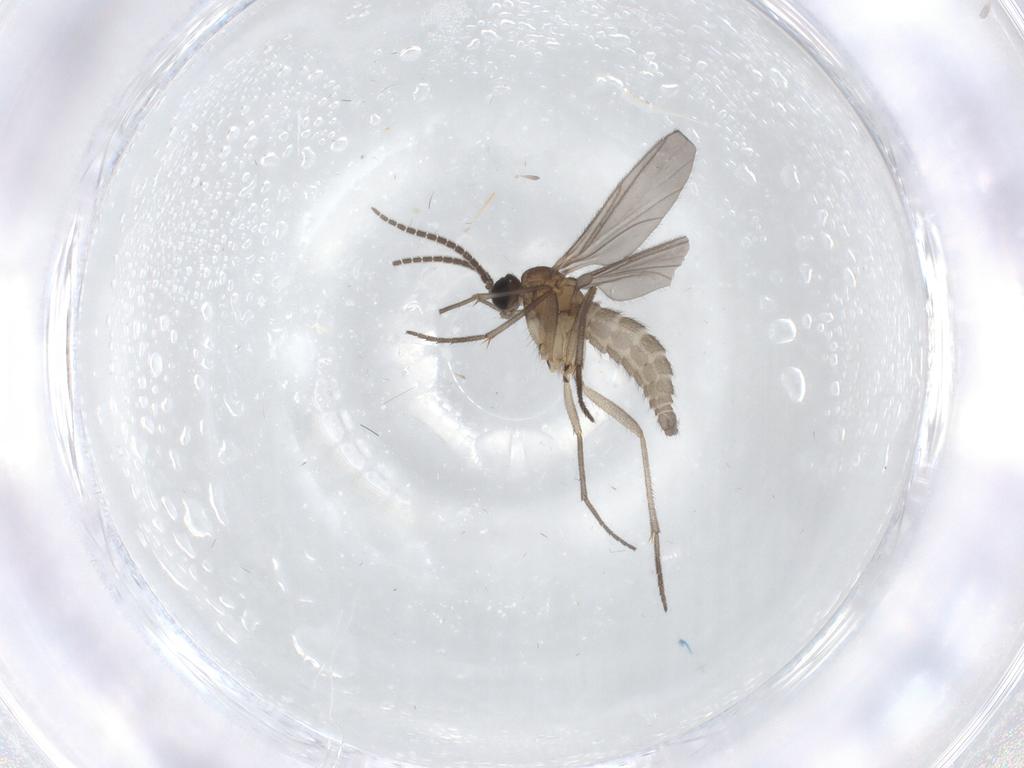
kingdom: Animalia
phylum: Arthropoda
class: Insecta
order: Diptera
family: Sciaridae
